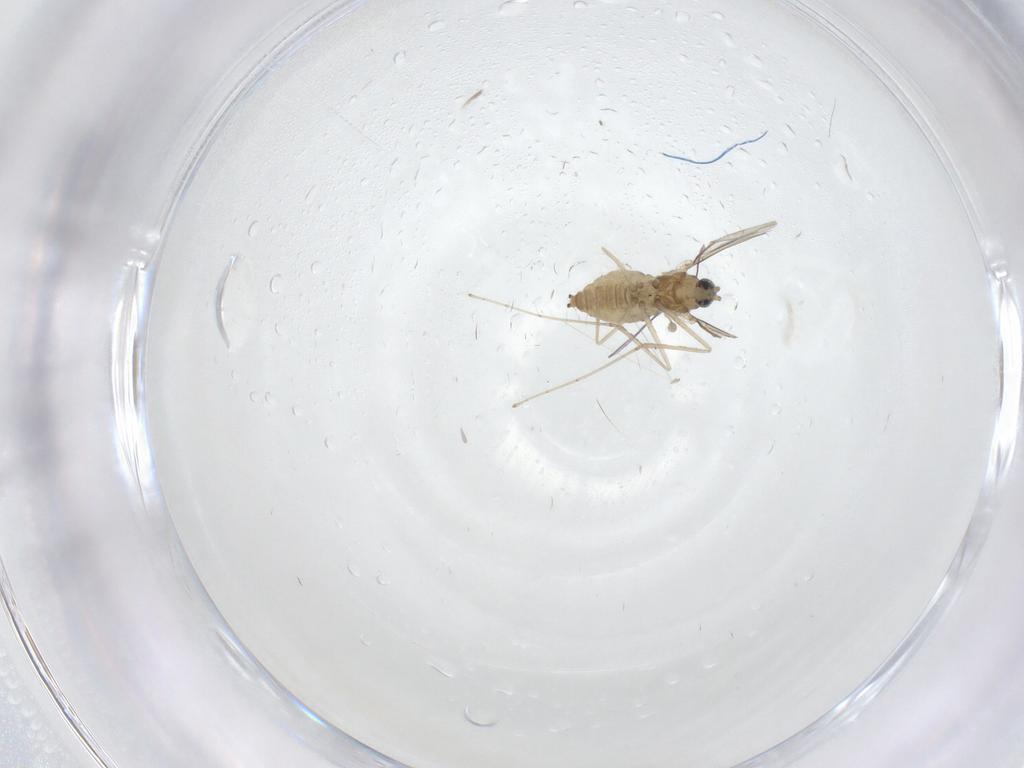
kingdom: Animalia
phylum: Arthropoda
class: Insecta
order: Diptera
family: Cecidomyiidae
